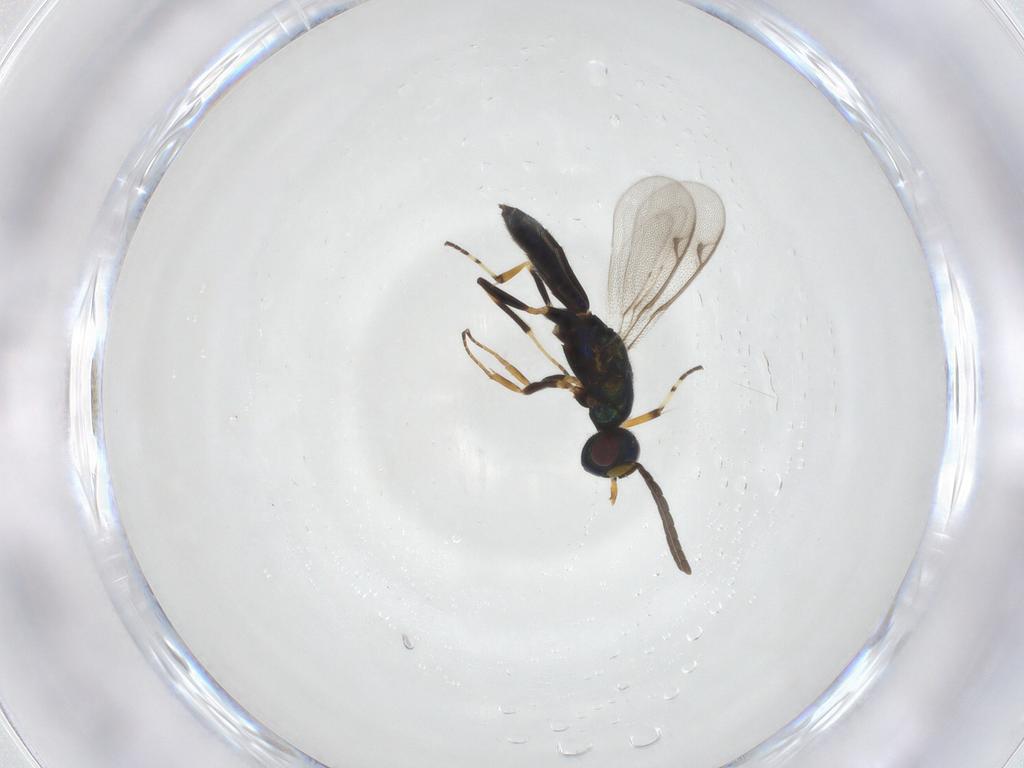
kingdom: Animalia
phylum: Arthropoda
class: Insecta
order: Hymenoptera
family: Eupelmidae
